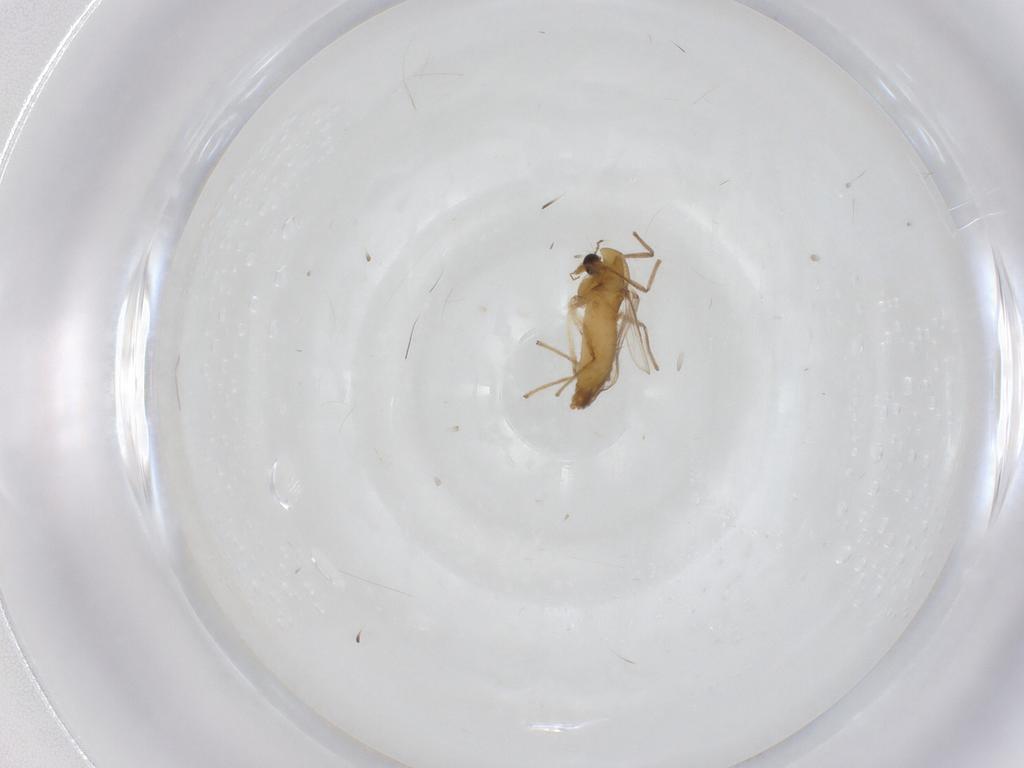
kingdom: Animalia
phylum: Arthropoda
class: Insecta
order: Diptera
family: Chironomidae
